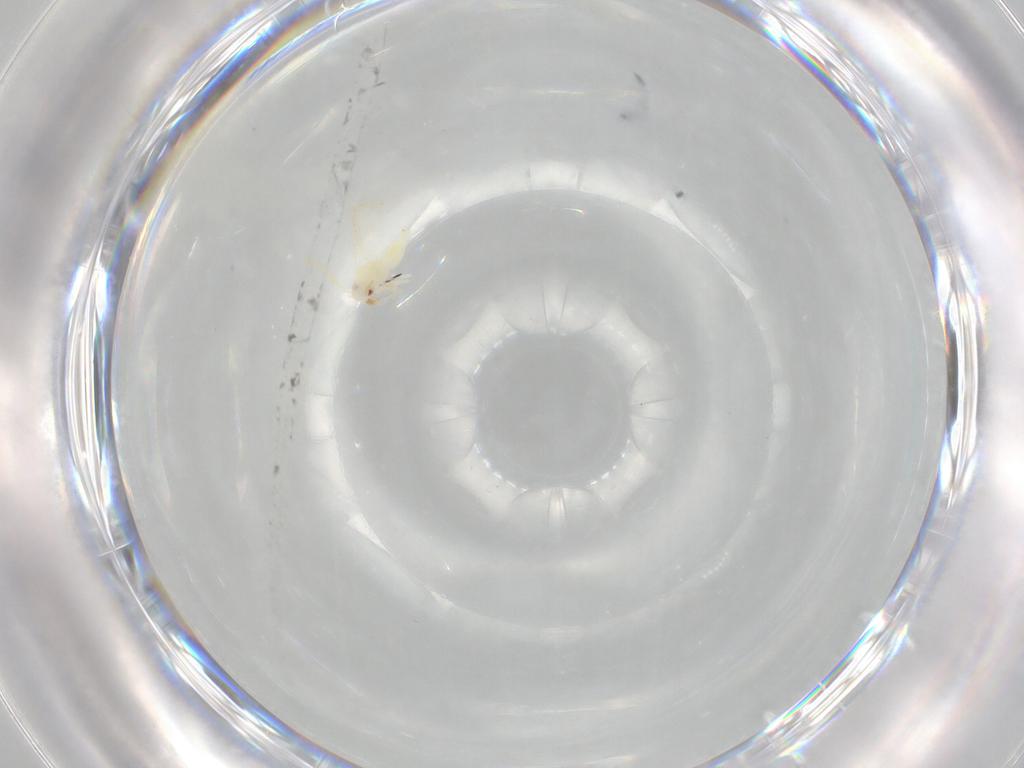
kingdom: Animalia
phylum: Arthropoda
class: Insecta
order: Hemiptera
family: Aleyrodidae
